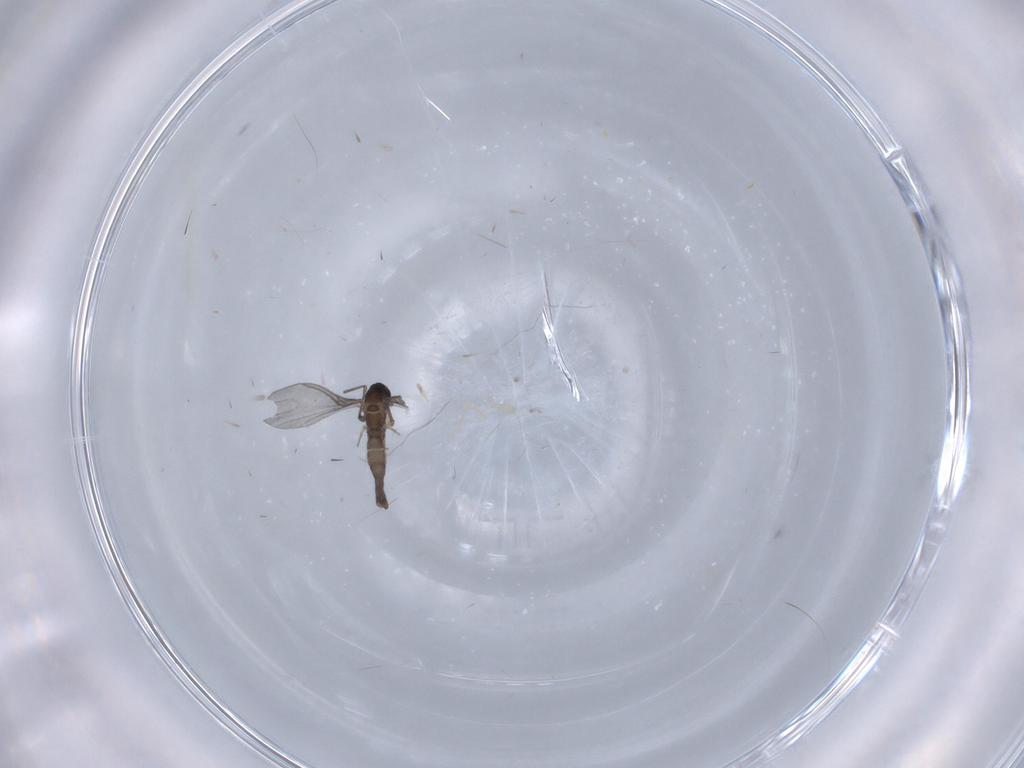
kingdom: Animalia
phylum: Arthropoda
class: Insecta
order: Diptera
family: Sciaridae
